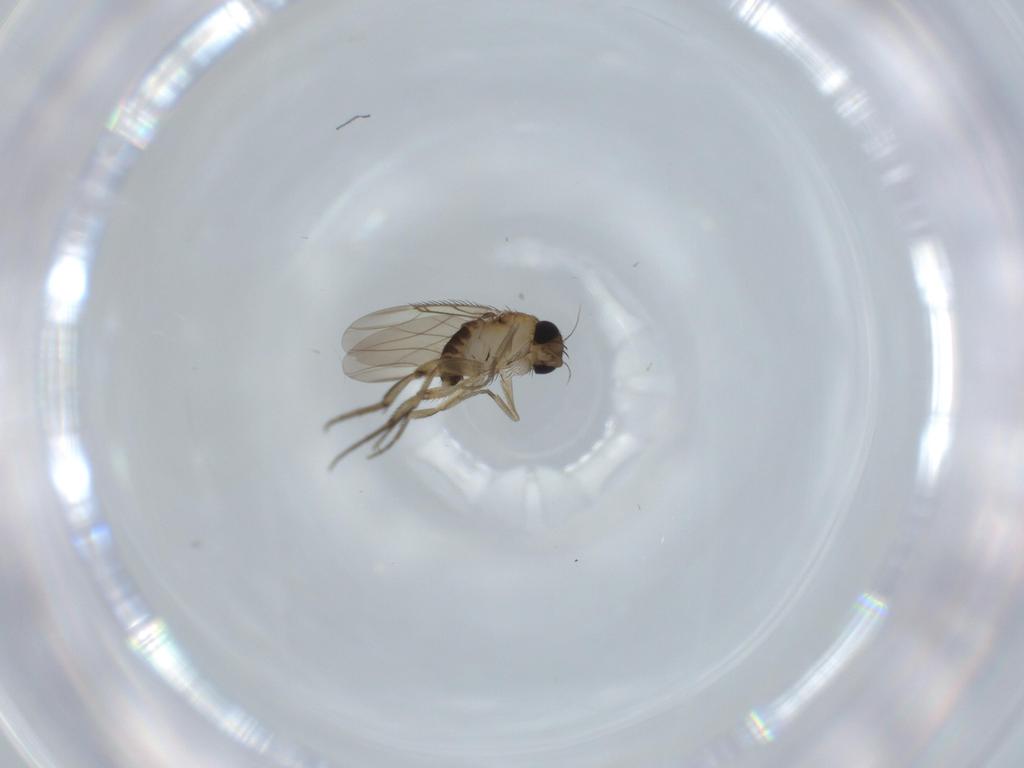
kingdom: Animalia
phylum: Arthropoda
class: Insecta
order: Diptera
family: Phoridae
